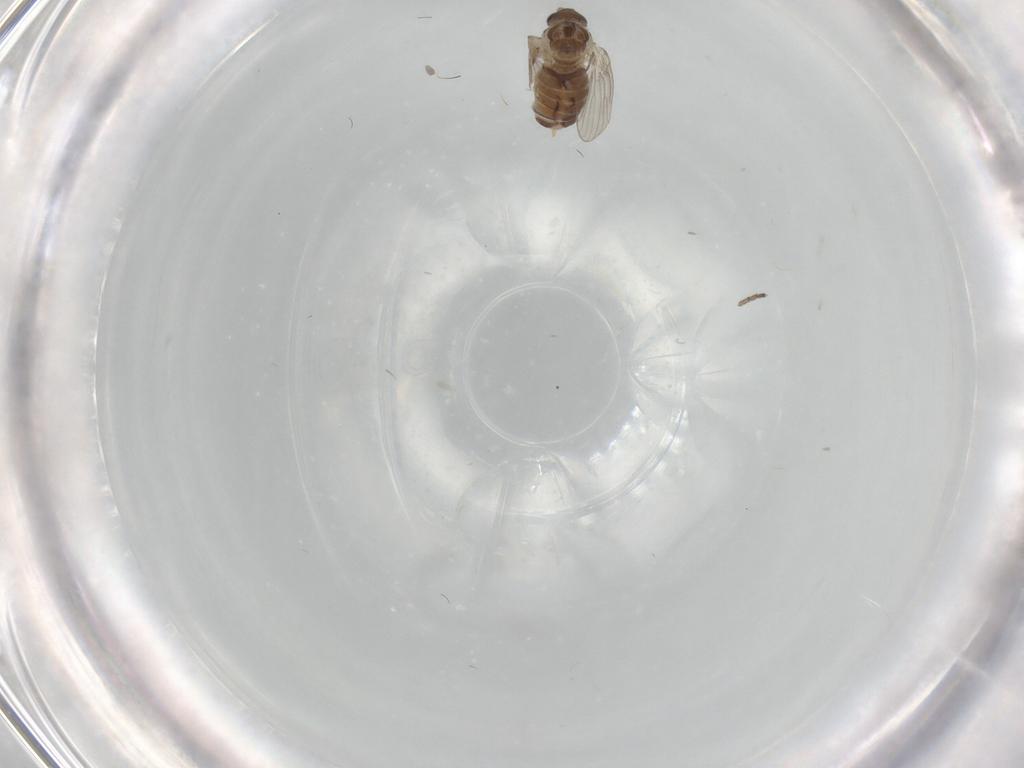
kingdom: Animalia
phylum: Arthropoda
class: Insecta
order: Diptera
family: Psychodidae
